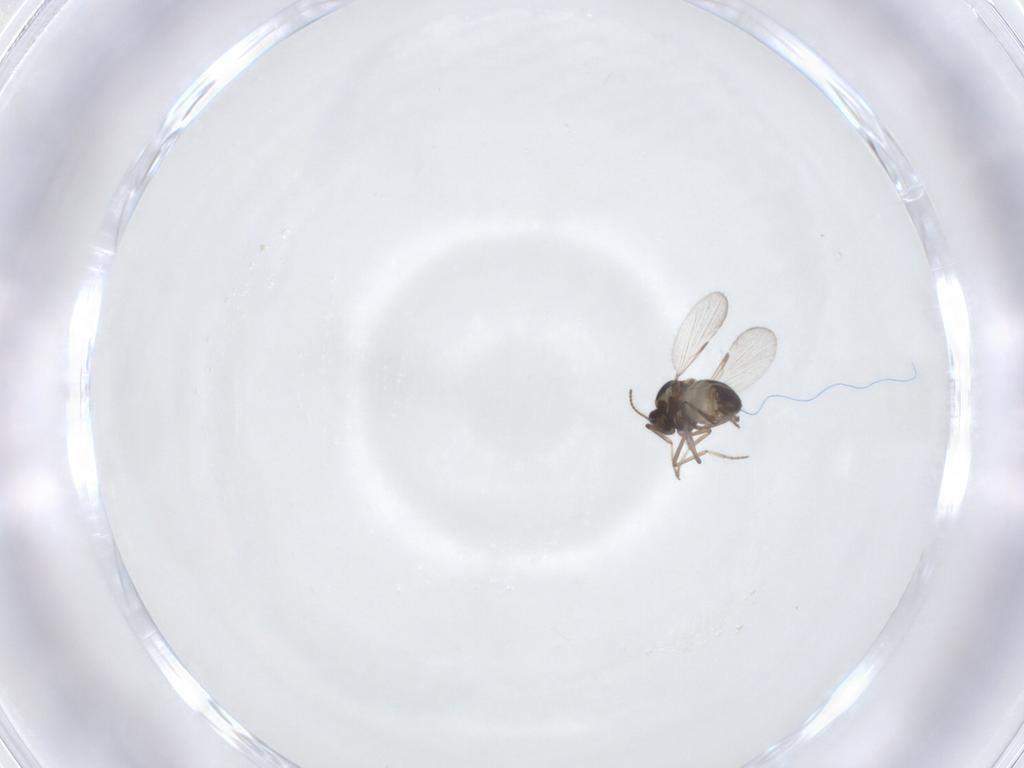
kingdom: Animalia
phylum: Arthropoda
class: Insecta
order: Diptera
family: Ceratopogonidae
